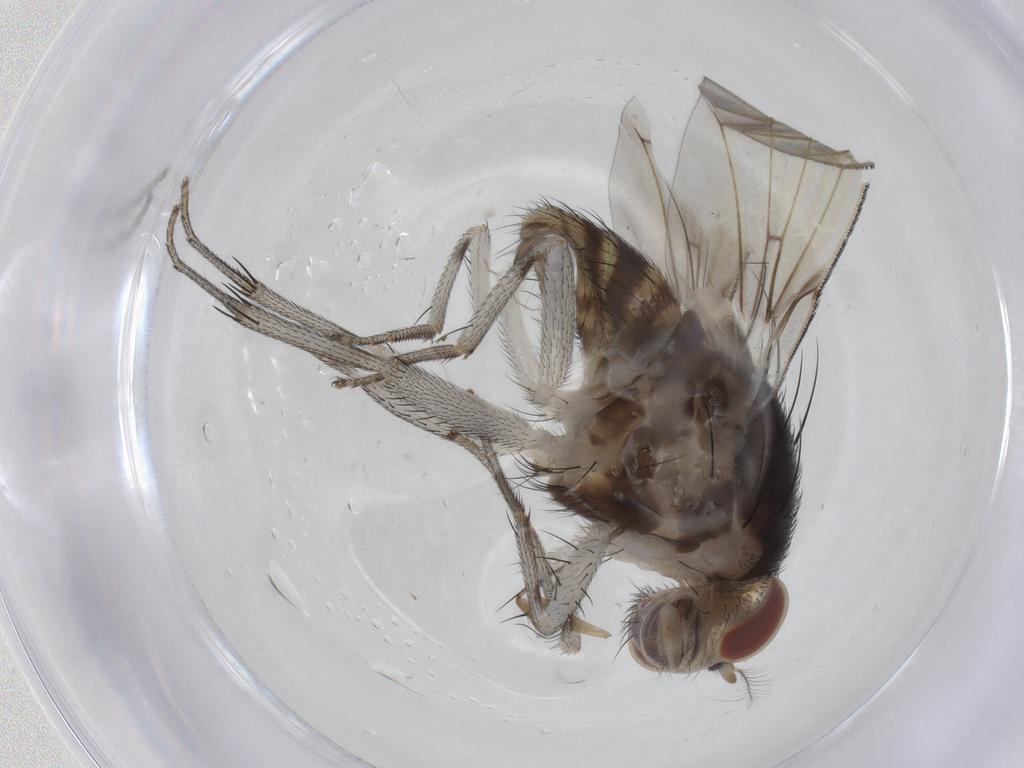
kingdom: Animalia
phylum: Arthropoda
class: Insecta
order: Diptera
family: Sciaridae
